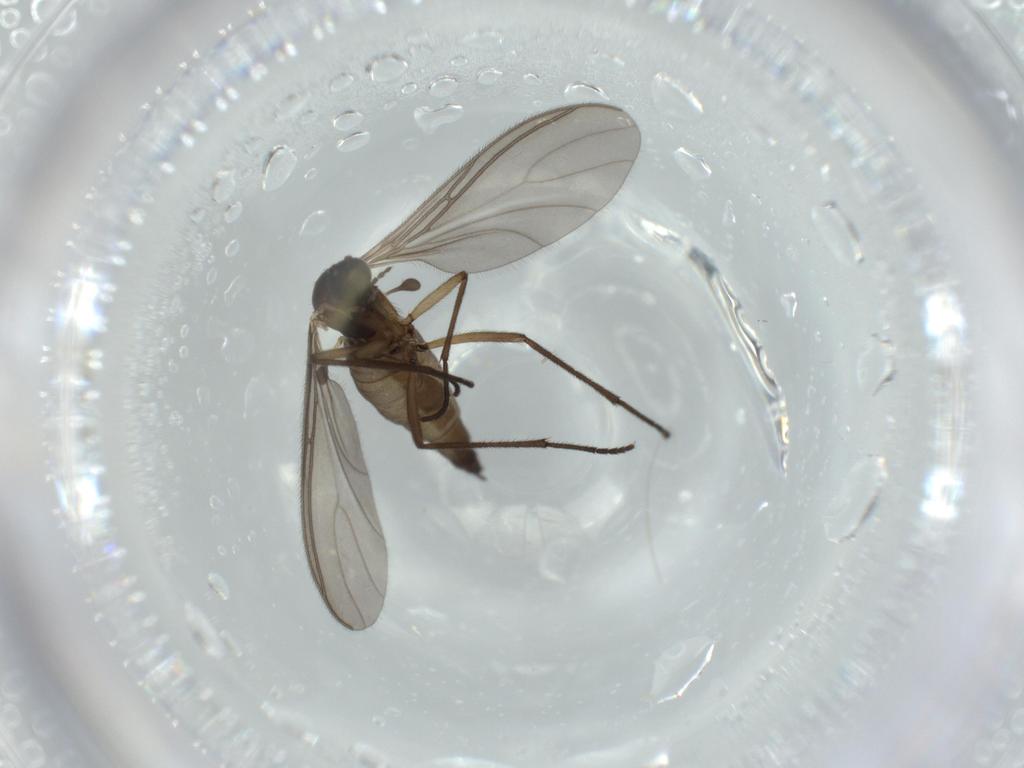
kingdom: Animalia
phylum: Arthropoda
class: Insecta
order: Diptera
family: Sciaridae
